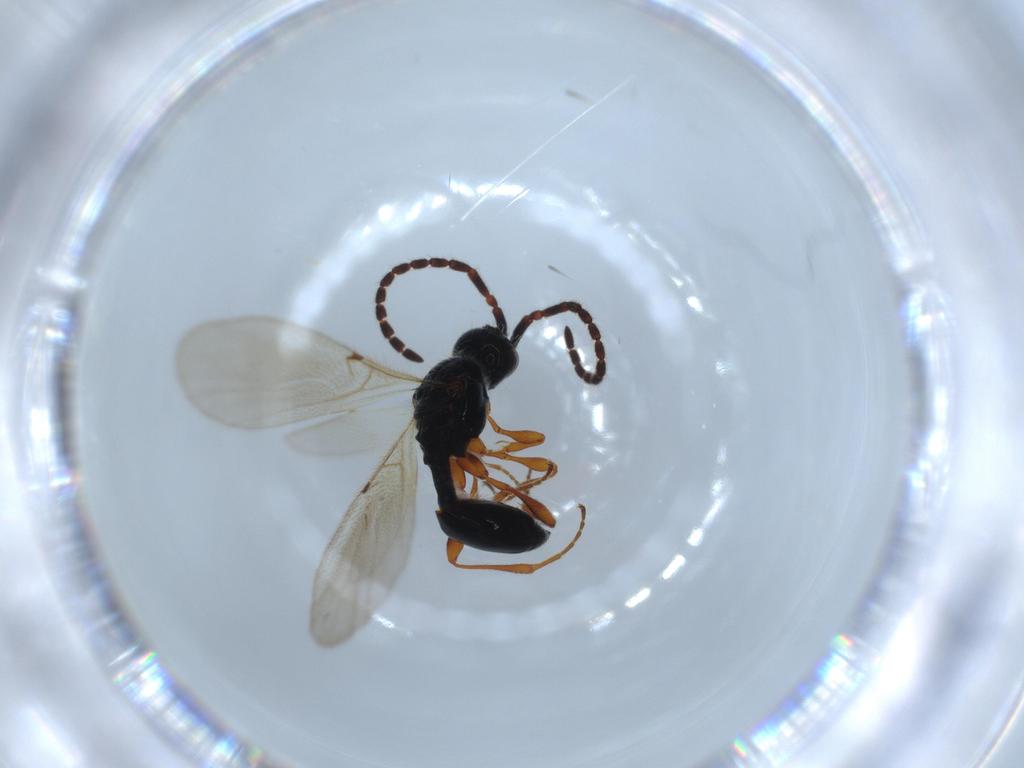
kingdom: Animalia
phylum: Arthropoda
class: Insecta
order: Hymenoptera
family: Diapriidae
